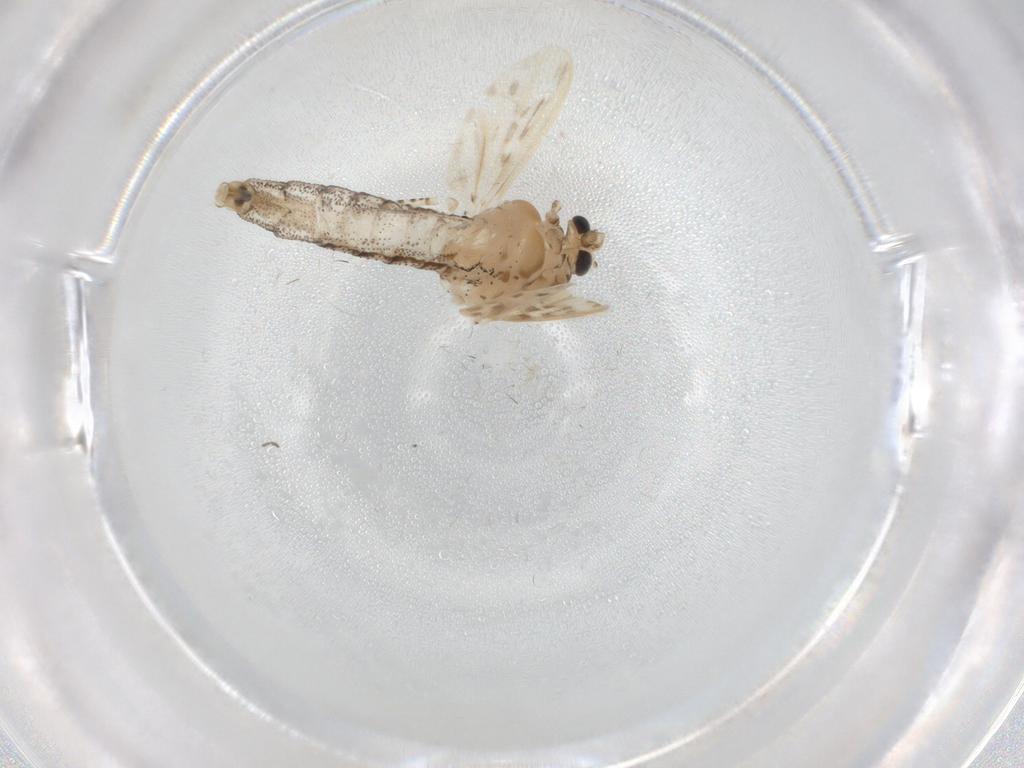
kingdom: Animalia
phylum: Arthropoda
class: Insecta
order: Diptera
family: Chaoboridae
